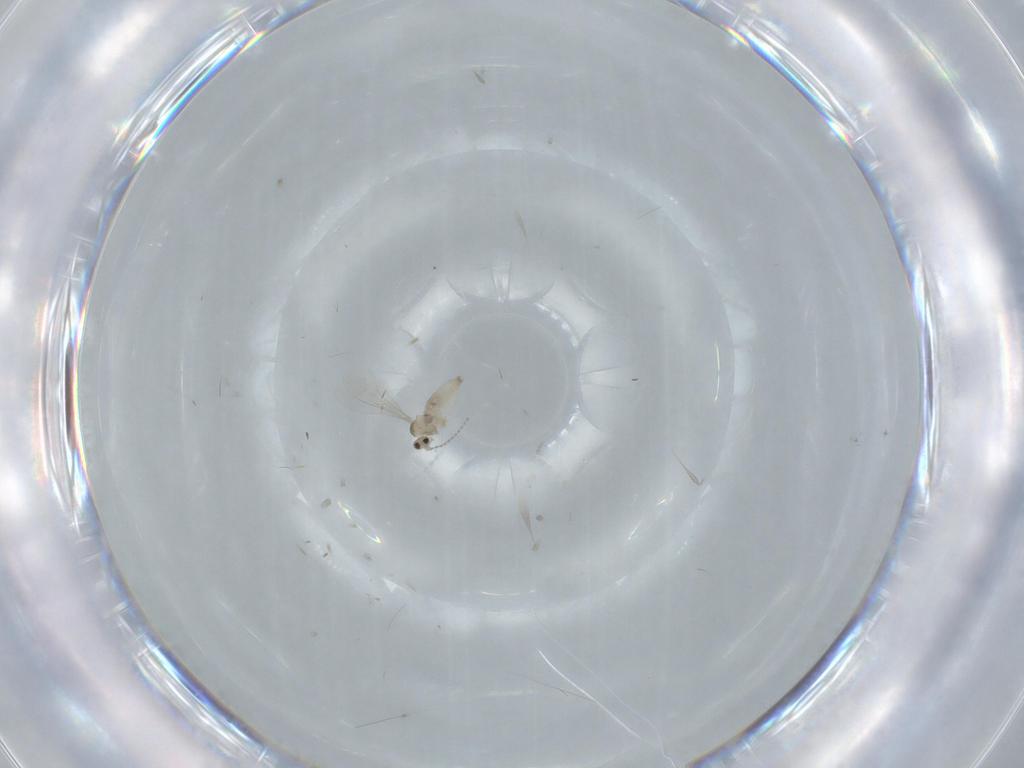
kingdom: Animalia
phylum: Arthropoda
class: Insecta
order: Diptera
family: Cecidomyiidae
